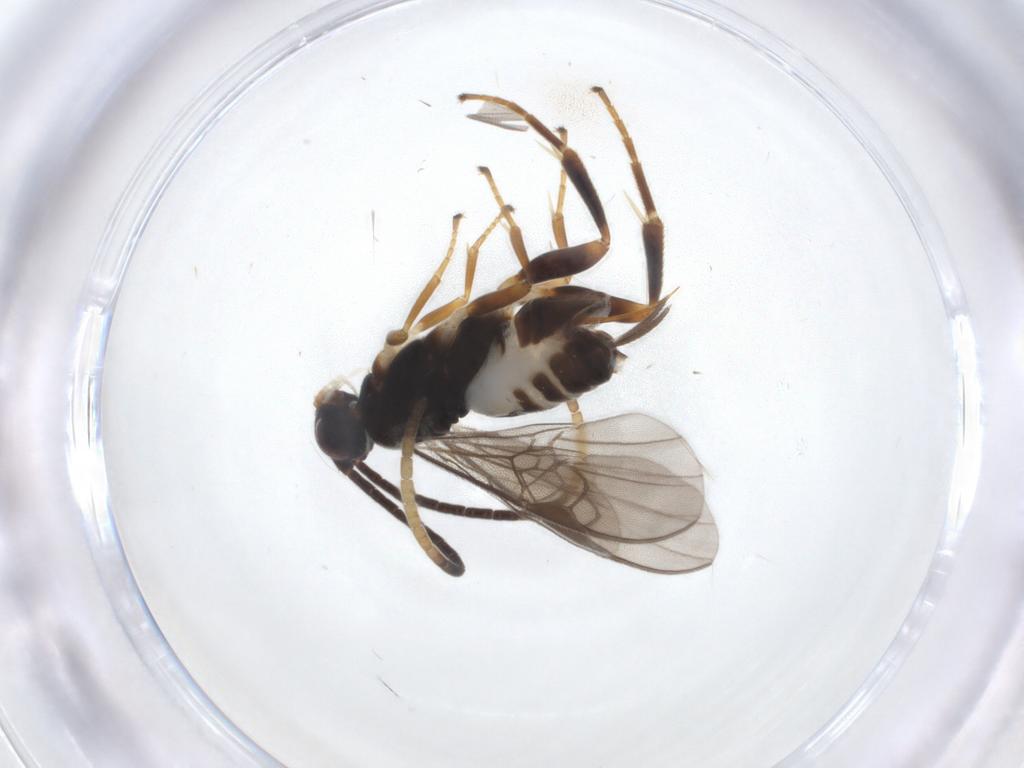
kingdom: Animalia
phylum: Arthropoda
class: Insecta
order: Hymenoptera
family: Braconidae
